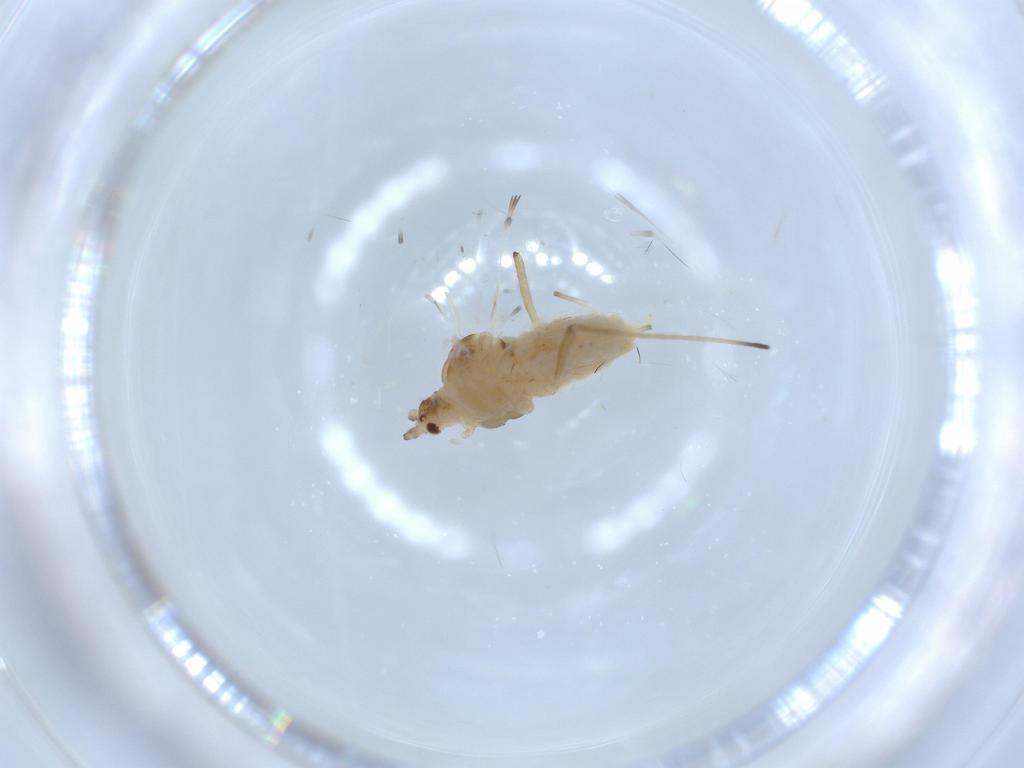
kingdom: Animalia
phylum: Arthropoda
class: Insecta
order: Hemiptera
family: Aphididae
